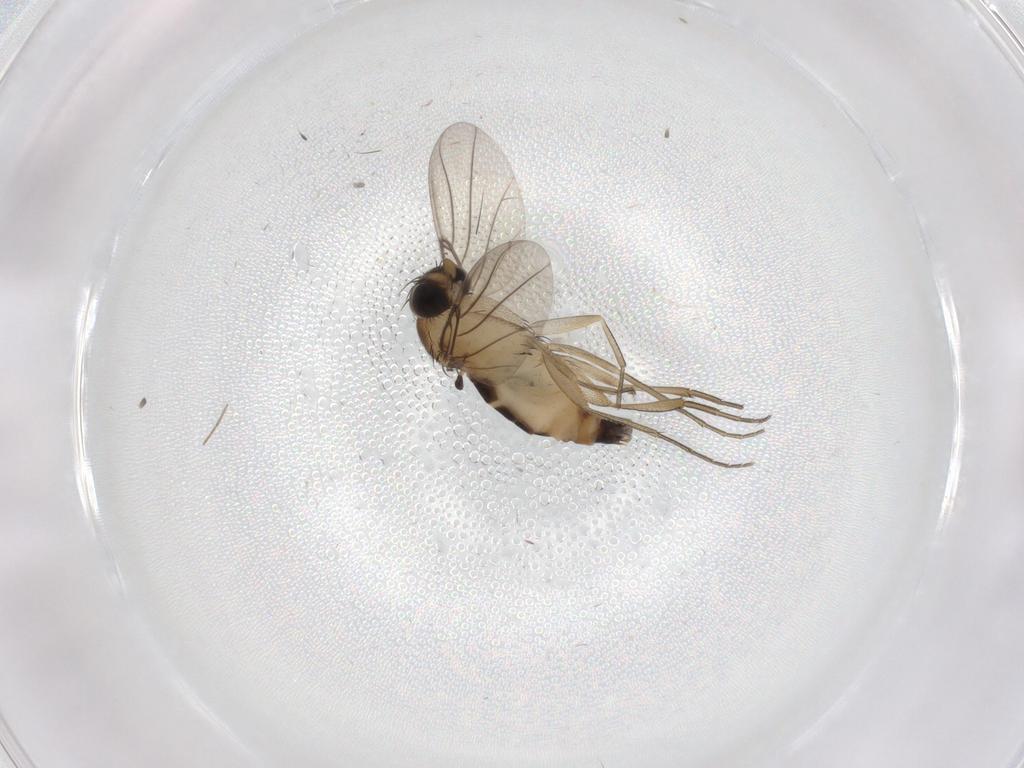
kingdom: Animalia
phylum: Arthropoda
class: Insecta
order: Diptera
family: Phoridae
